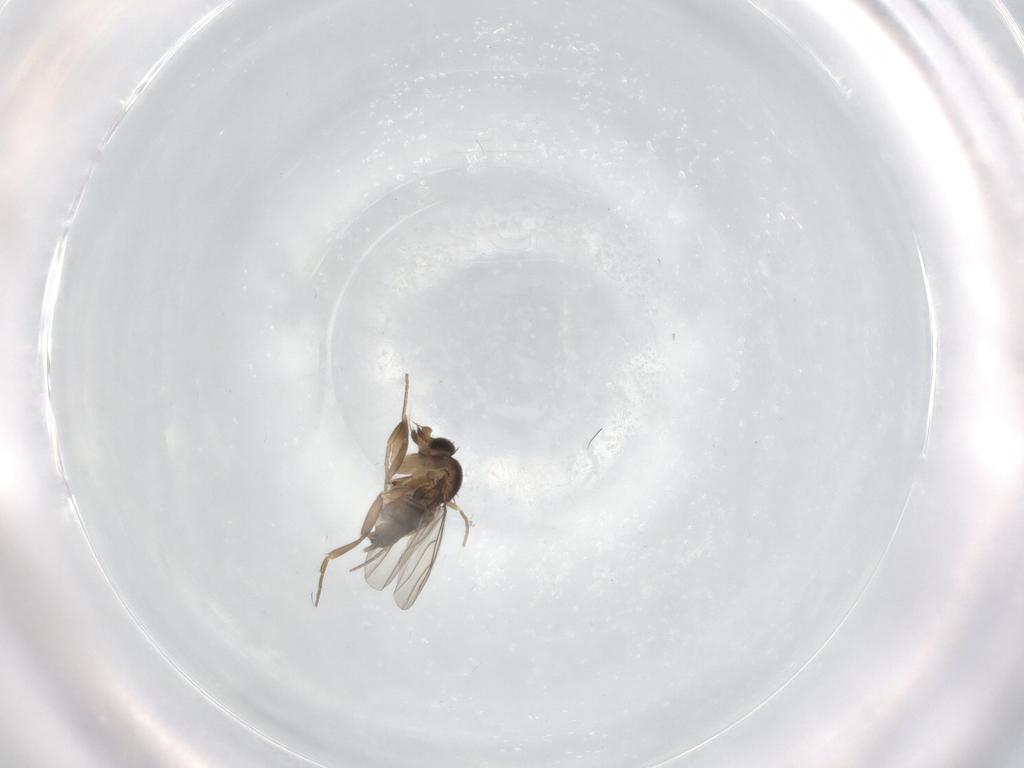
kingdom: Animalia
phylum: Arthropoda
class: Insecta
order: Diptera
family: Phoridae
